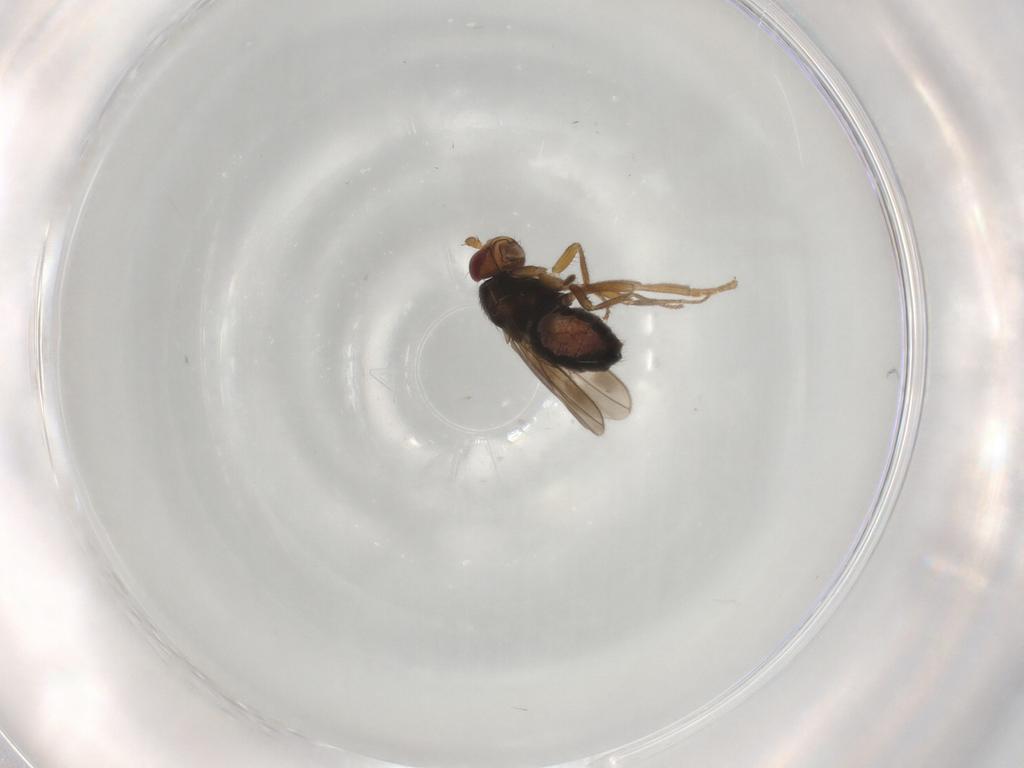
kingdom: Animalia
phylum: Arthropoda
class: Insecta
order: Diptera
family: Sphaeroceridae
